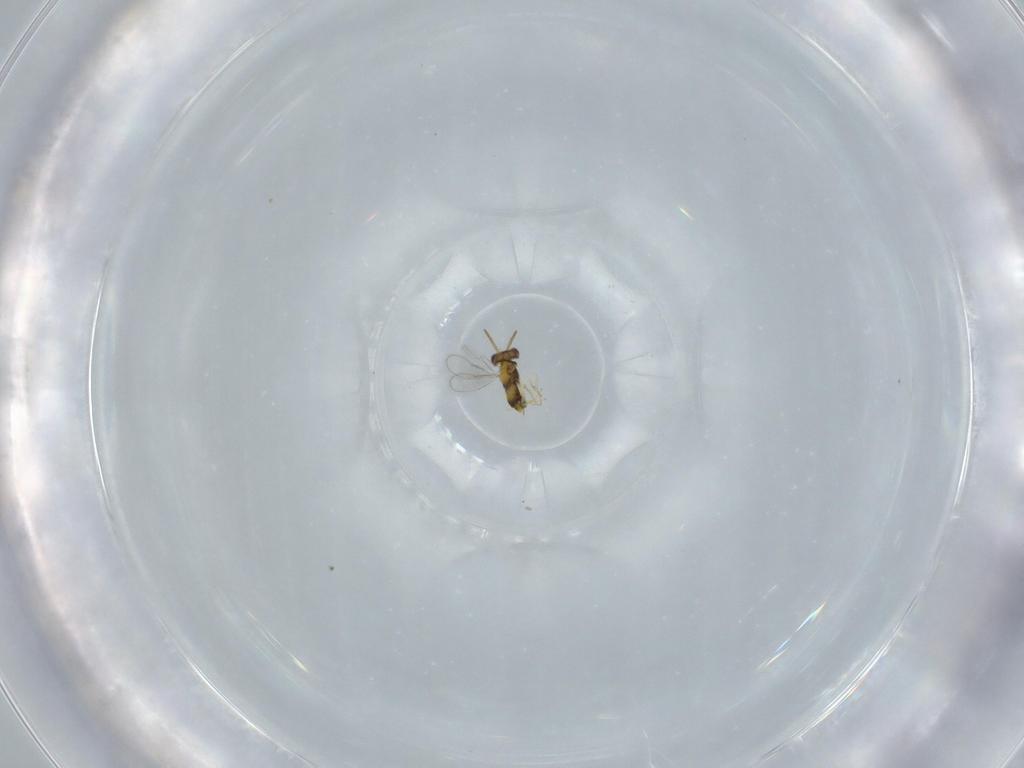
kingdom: Animalia
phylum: Arthropoda
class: Insecta
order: Hymenoptera
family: Aphelinidae
